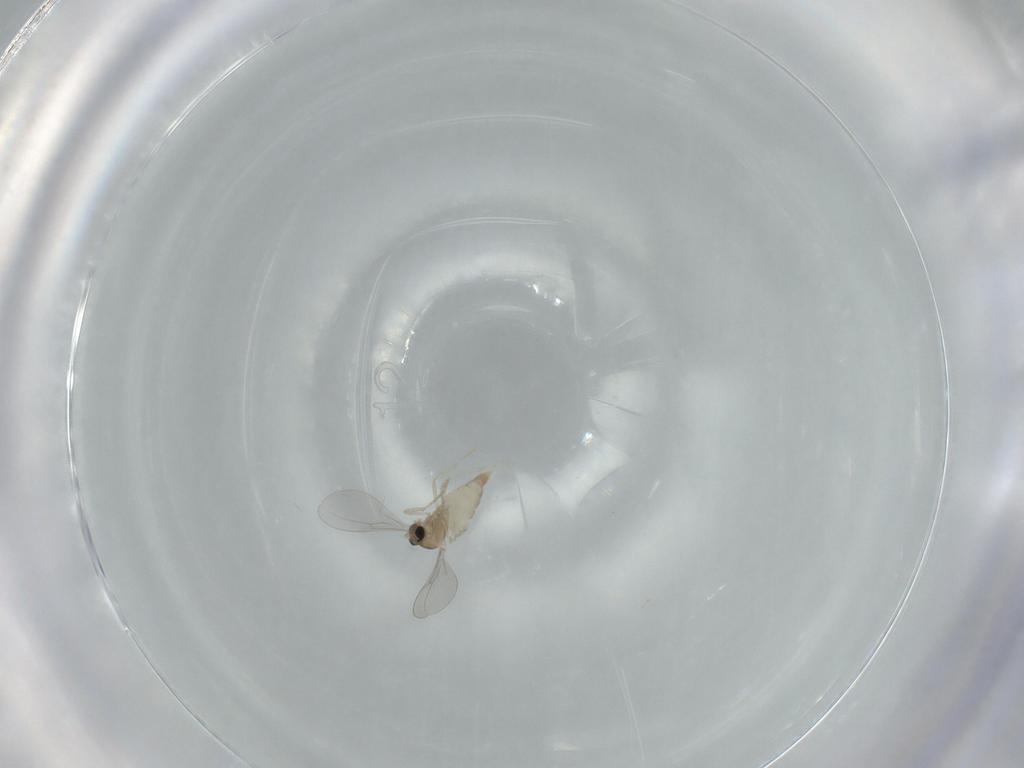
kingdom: Animalia
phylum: Arthropoda
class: Insecta
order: Diptera
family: Cecidomyiidae
